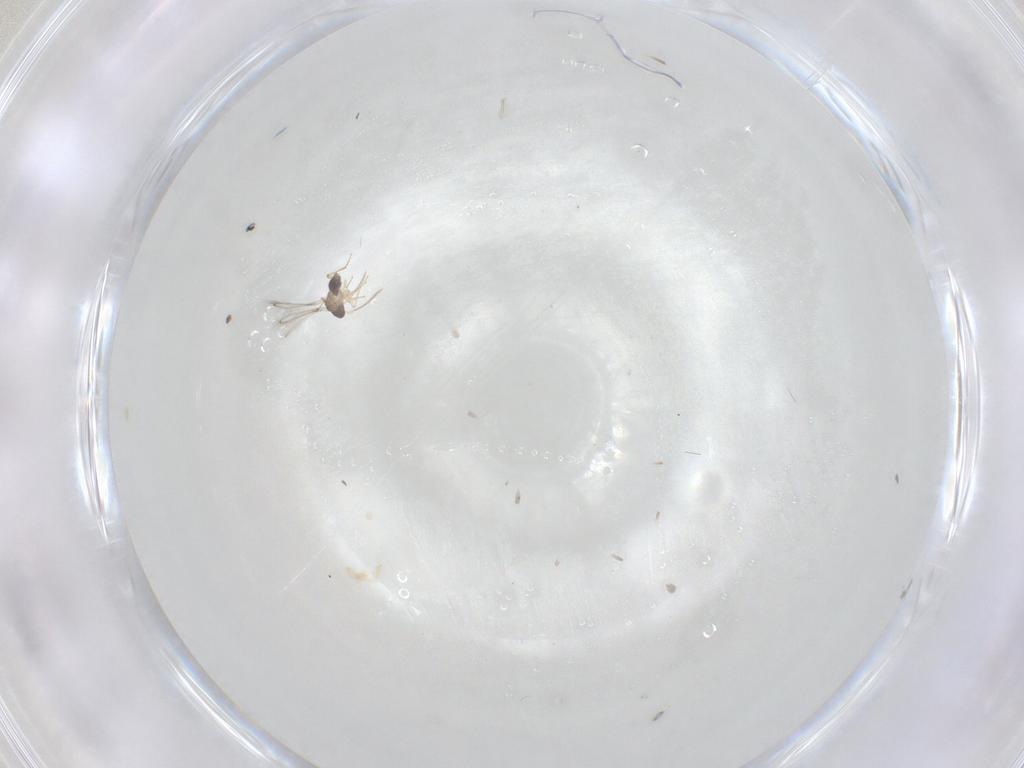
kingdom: Animalia
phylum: Arthropoda
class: Insecta
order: Hymenoptera
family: Mymaridae
